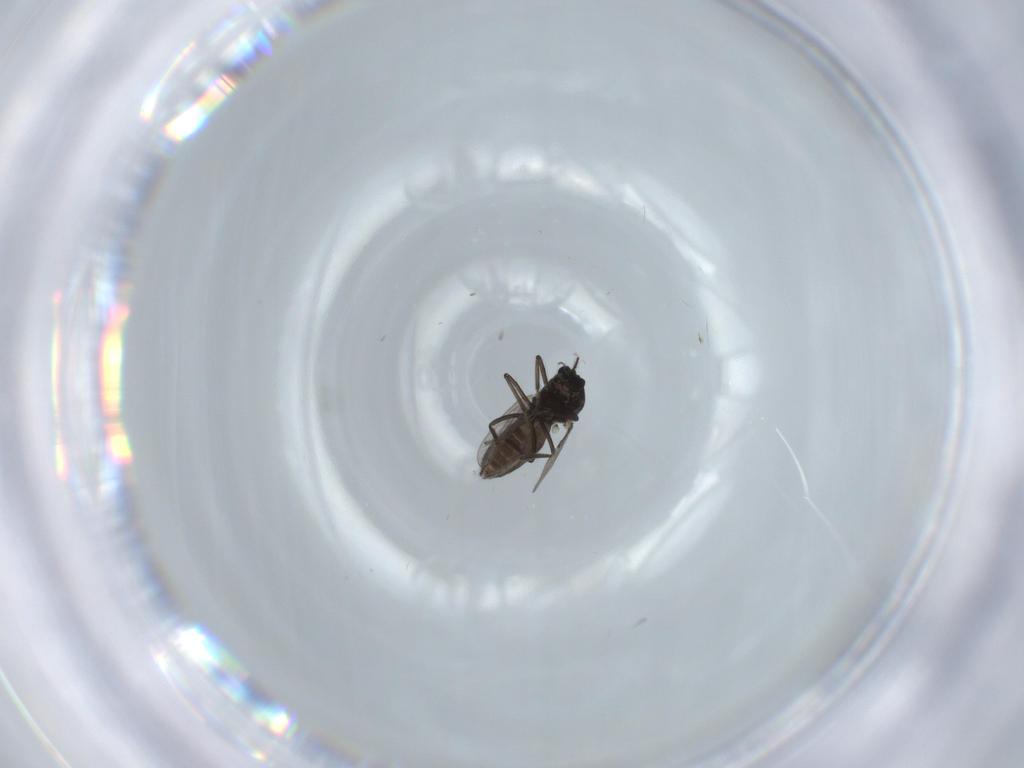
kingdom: Animalia
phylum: Arthropoda
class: Insecta
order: Diptera
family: Ceratopogonidae
